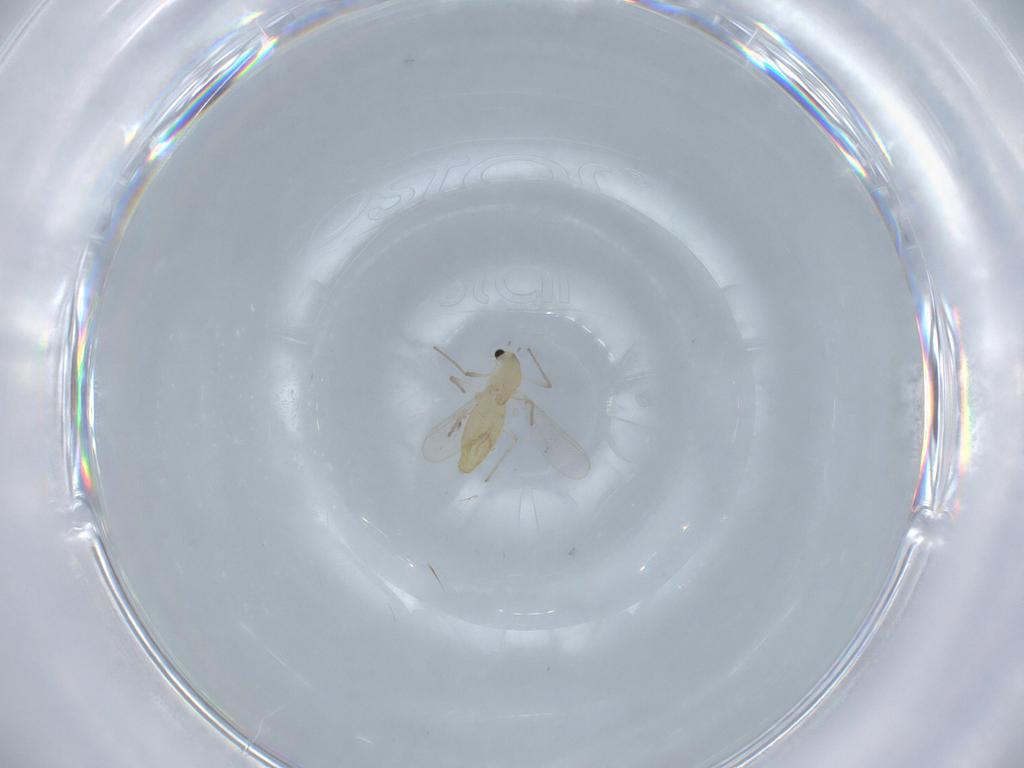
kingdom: Animalia
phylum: Arthropoda
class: Insecta
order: Diptera
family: Chironomidae
